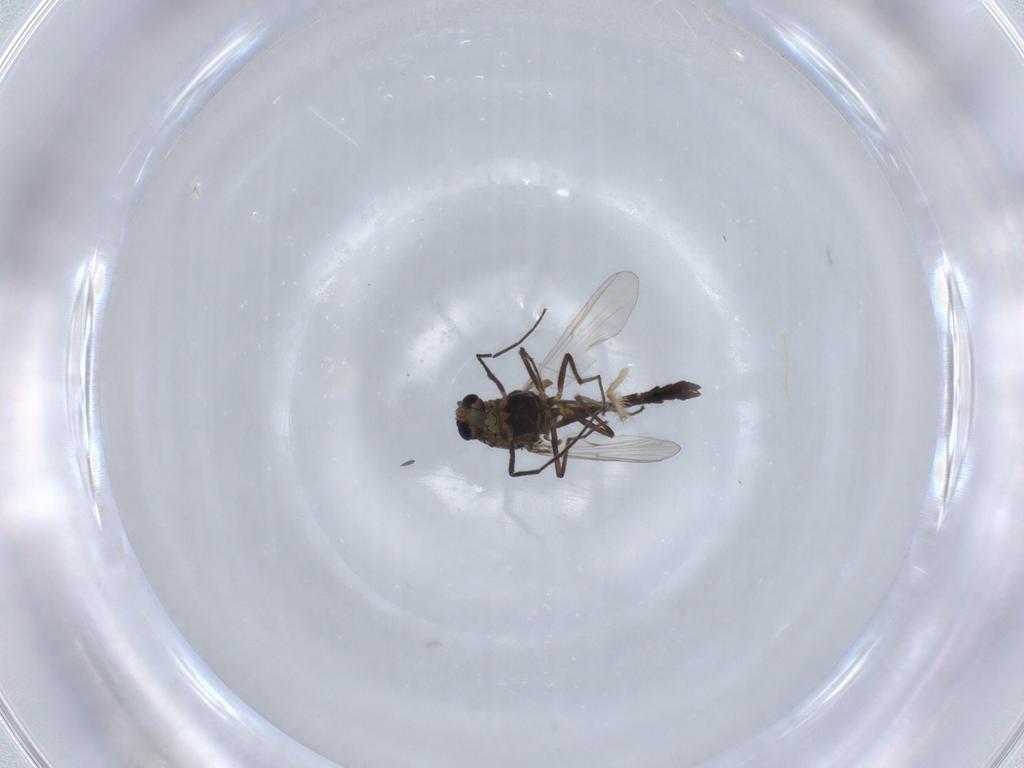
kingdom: Animalia
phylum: Arthropoda
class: Insecta
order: Diptera
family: Chironomidae
